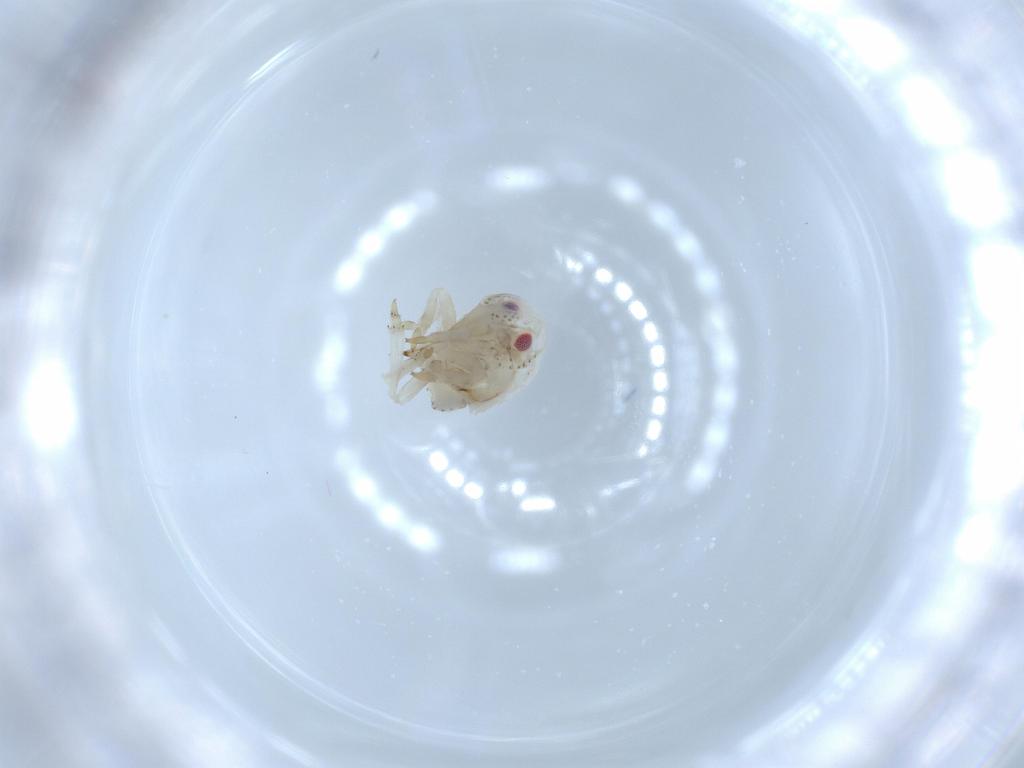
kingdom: Animalia
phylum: Arthropoda
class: Insecta
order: Hemiptera
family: Acanaloniidae
